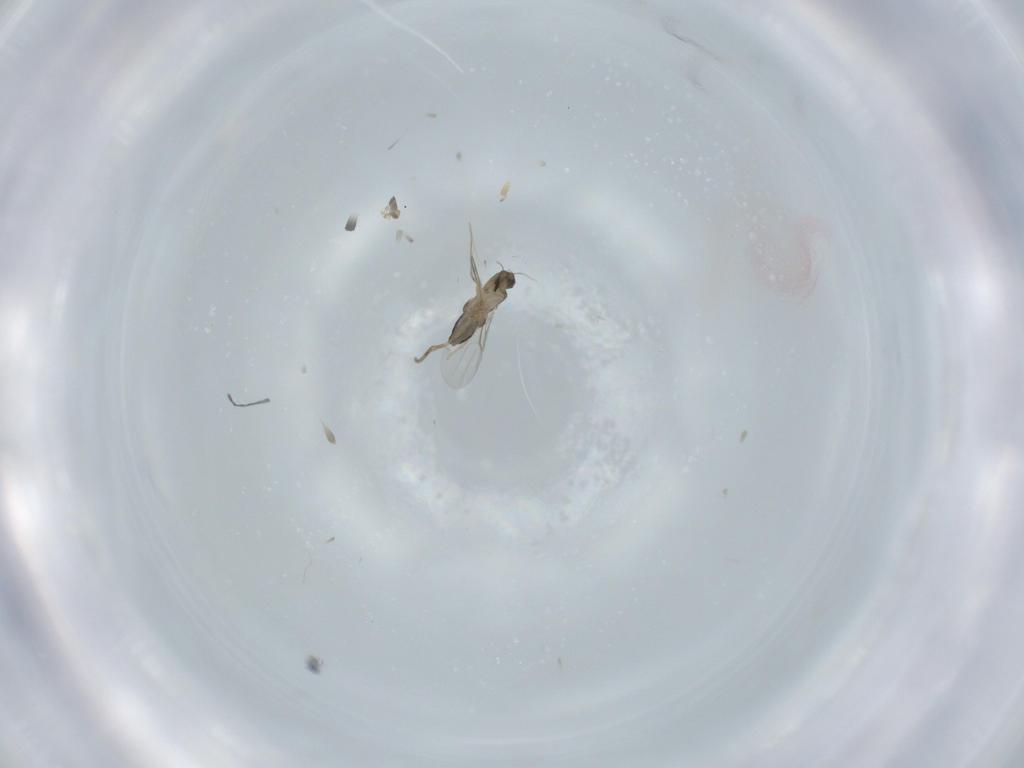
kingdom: Animalia
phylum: Arthropoda
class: Insecta
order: Diptera
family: Phoridae
